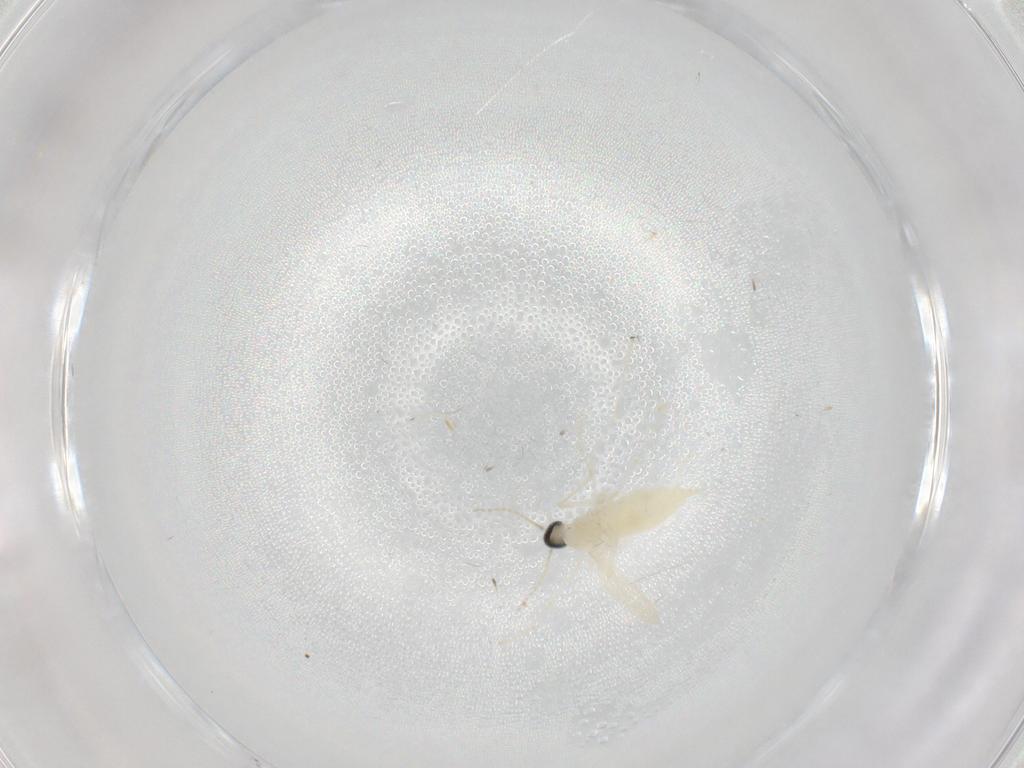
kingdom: Animalia
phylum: Arthropoda
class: Insecta
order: Diptera
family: Cecidomyiidae
